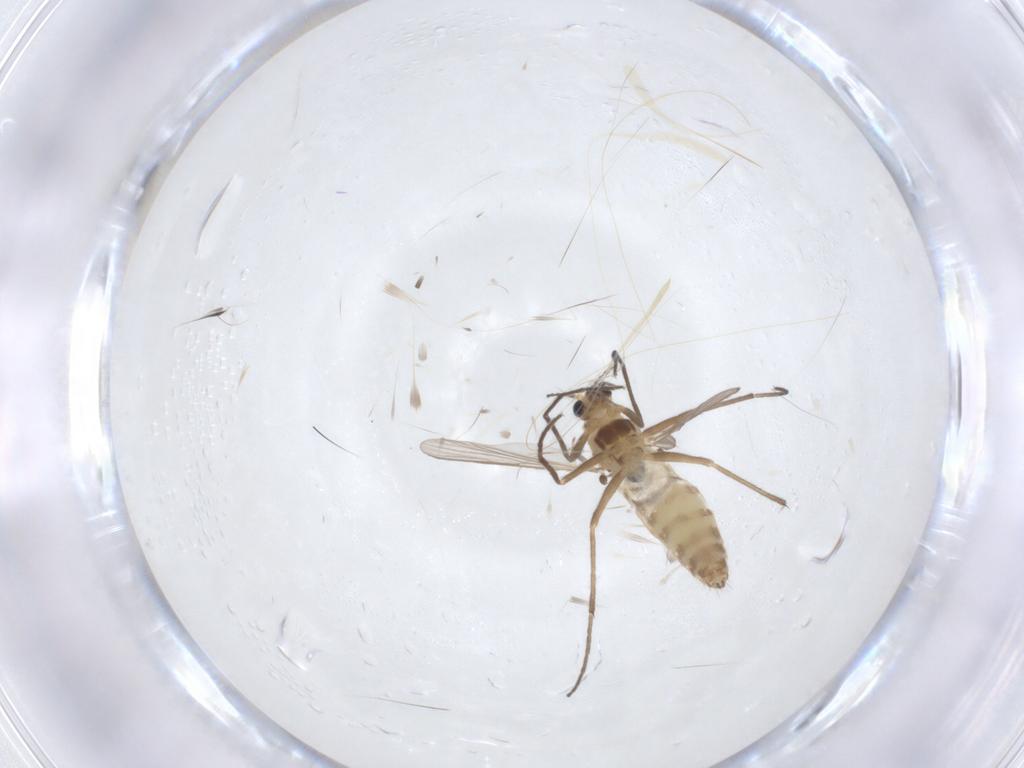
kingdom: Animalia
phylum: Arthropoda
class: Insecta
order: Diptera
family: Chironomidae
